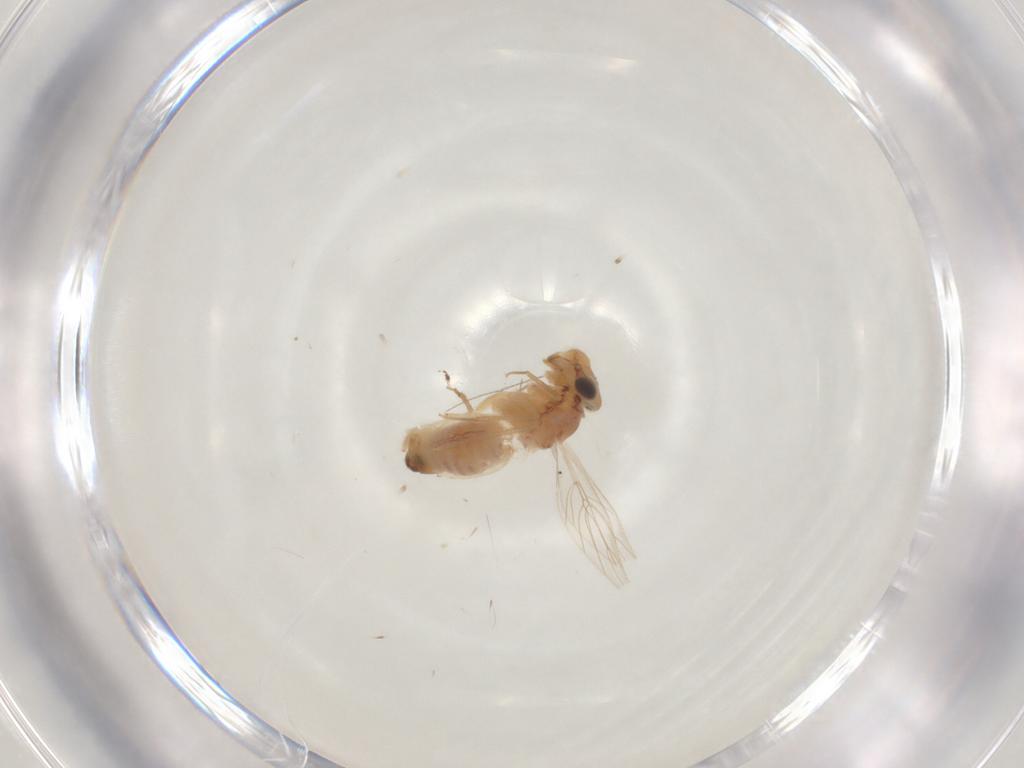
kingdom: Animalia
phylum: Arthropoda
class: Insecta
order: Psocodea
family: Lepidopsocidae
